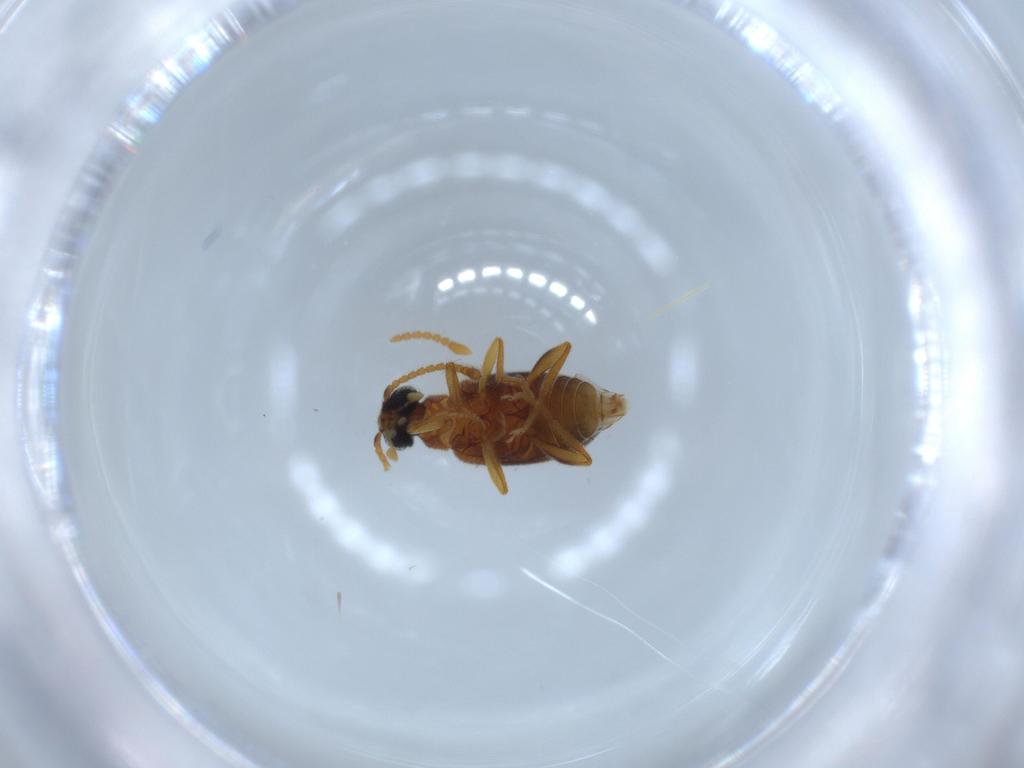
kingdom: Animalia
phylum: Arthropoda
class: Insecta
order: Coleoptera
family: Aderidae
